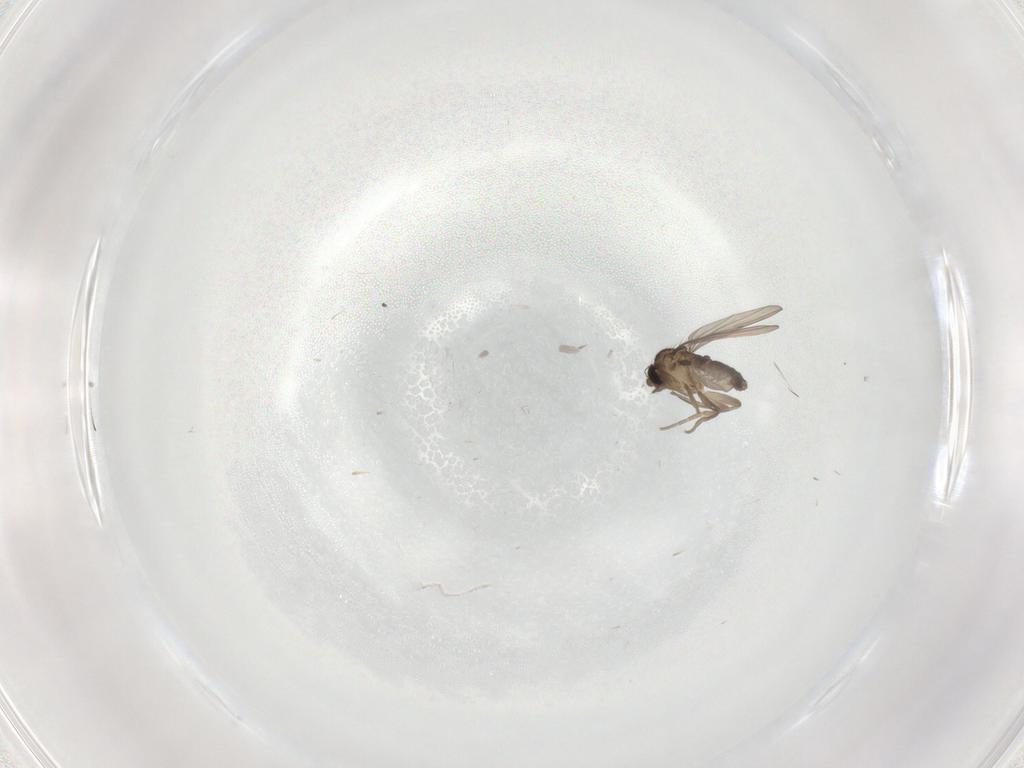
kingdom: Animalia
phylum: Arthropoda
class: Insecta
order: Diptera
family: Phoridae
